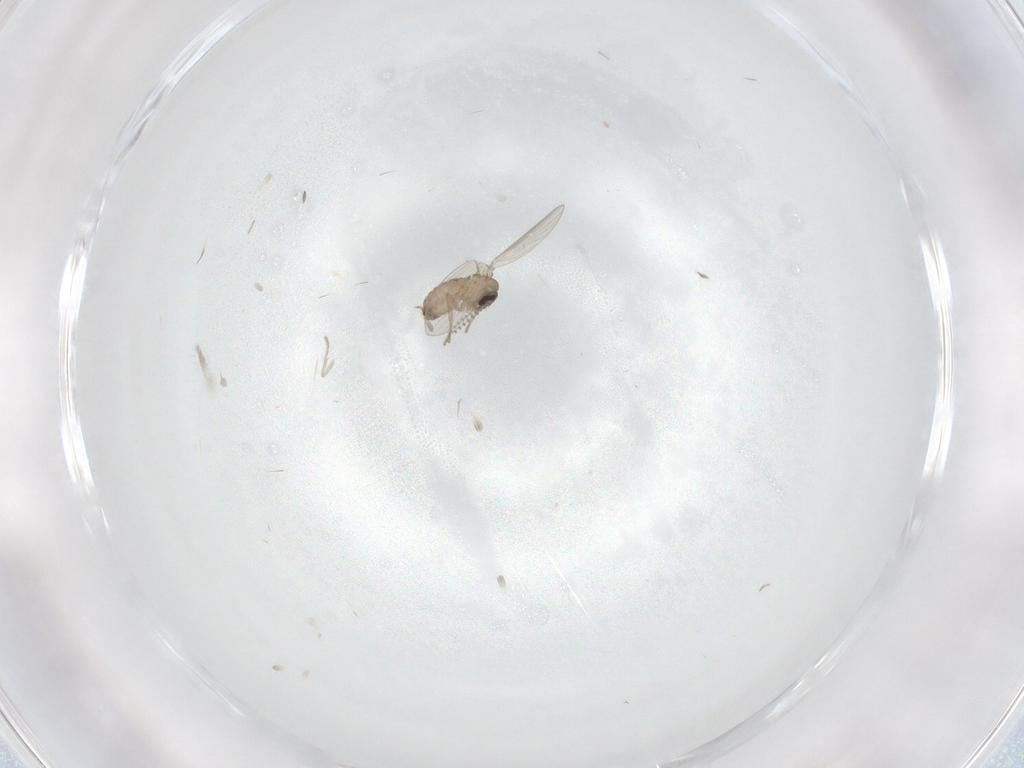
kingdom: Animalia
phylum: Arthropoda
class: Insecta
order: Diptera
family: Psychodidae
